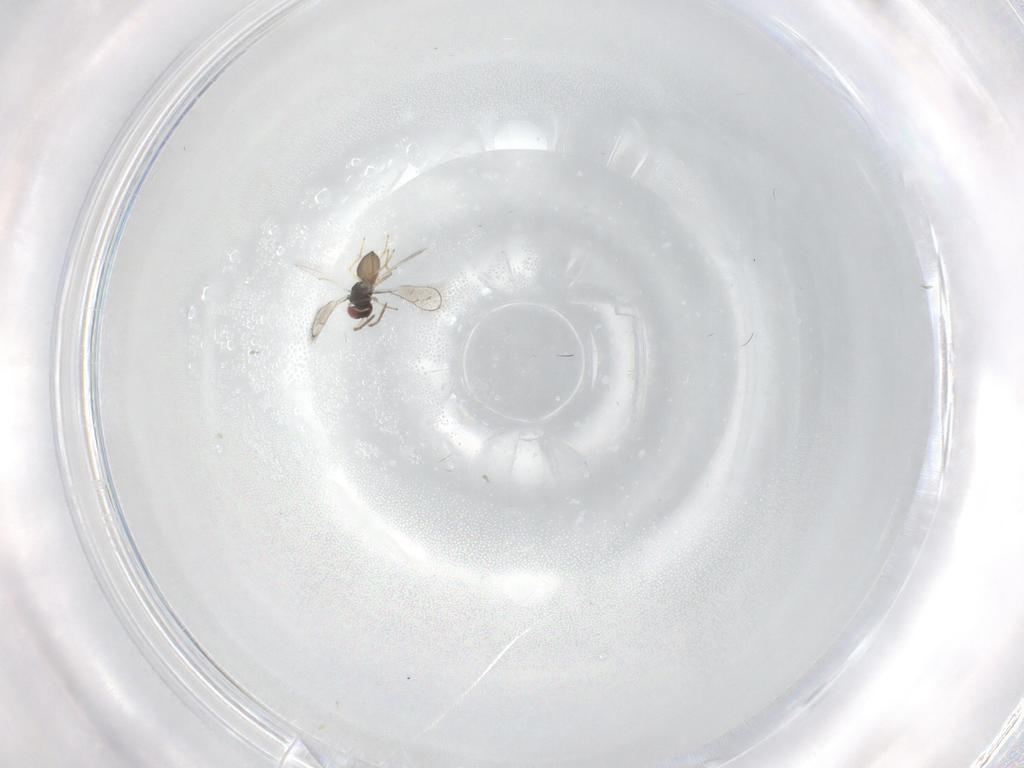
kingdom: Animalia
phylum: Arthropoda
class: Insecta
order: Hymenoptera
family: Eulophidae
